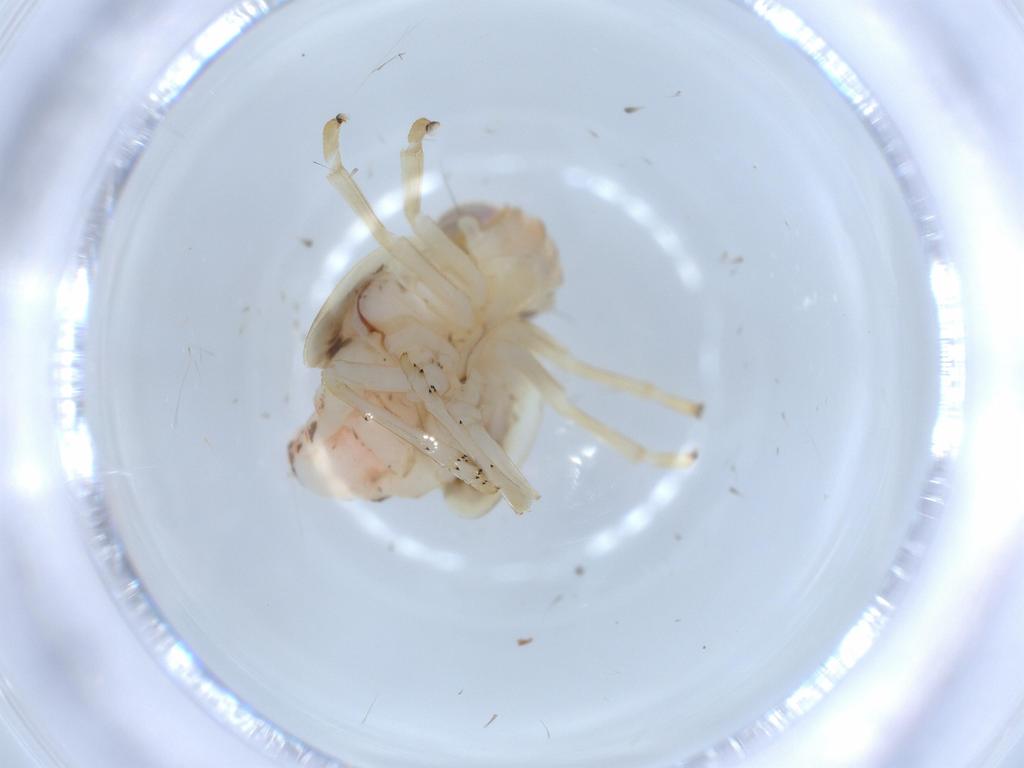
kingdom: Animalia
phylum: Arthropoda
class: Insecta
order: Hemiptera
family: Nogodinidae
